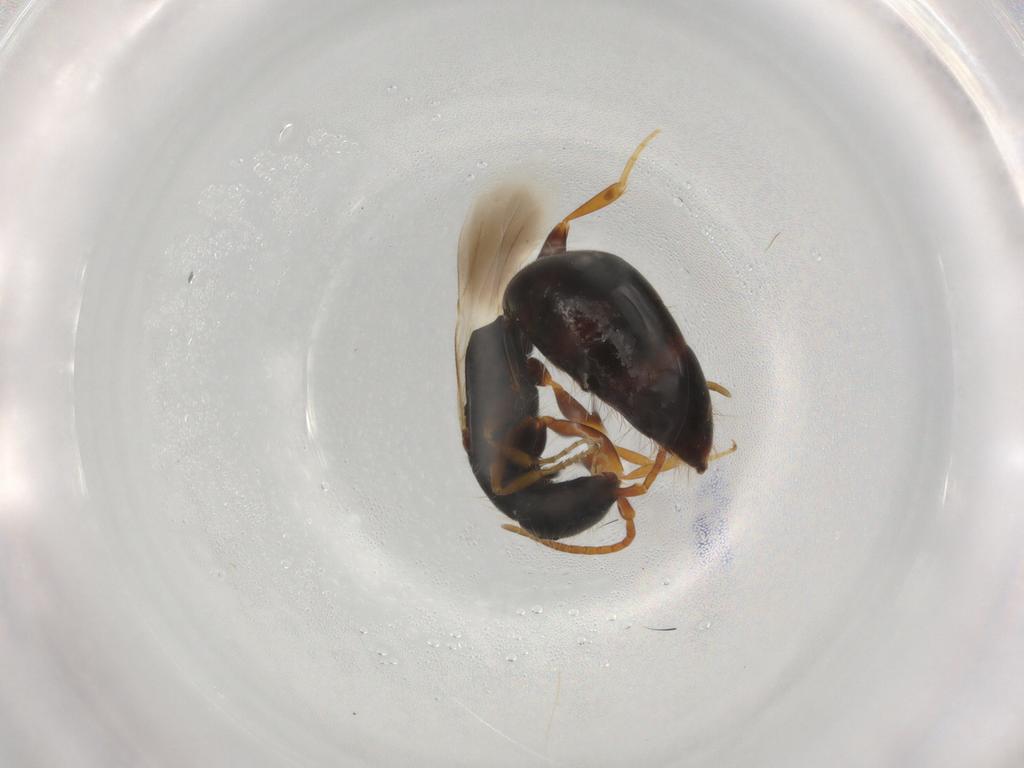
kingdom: Animalia
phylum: Arthropoda
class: Insecta
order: Hymenoptera
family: Bethylidae
